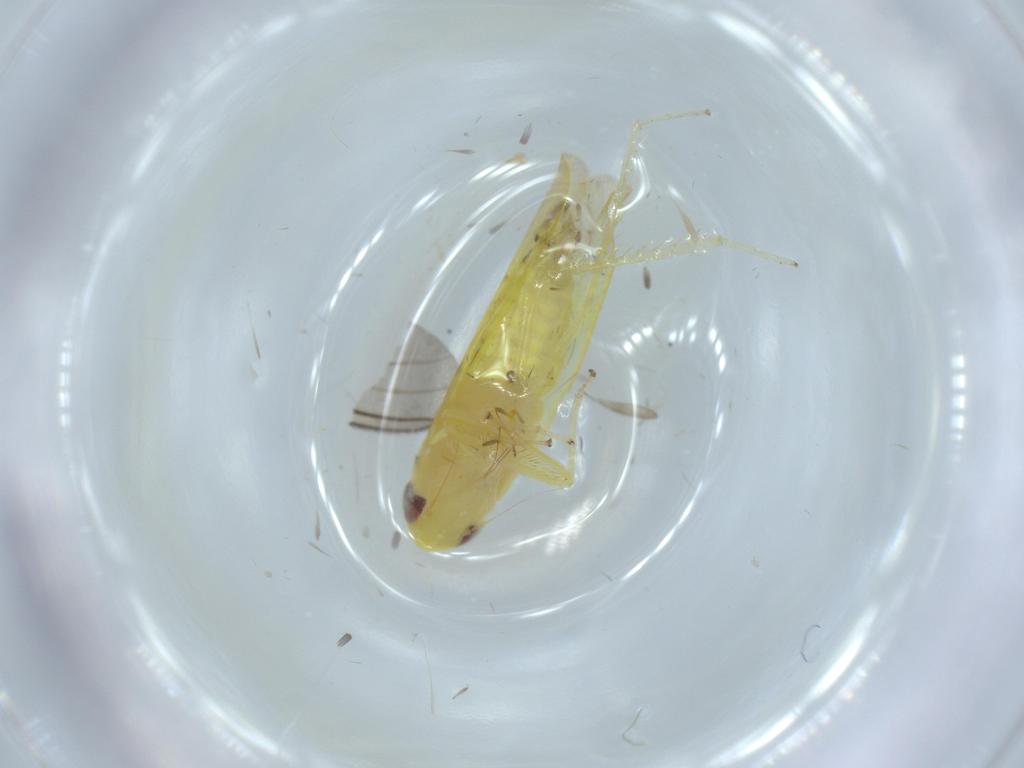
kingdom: Animalia
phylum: Arthropoda
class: Insecta
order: Hemiptera
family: Cicadellidae
